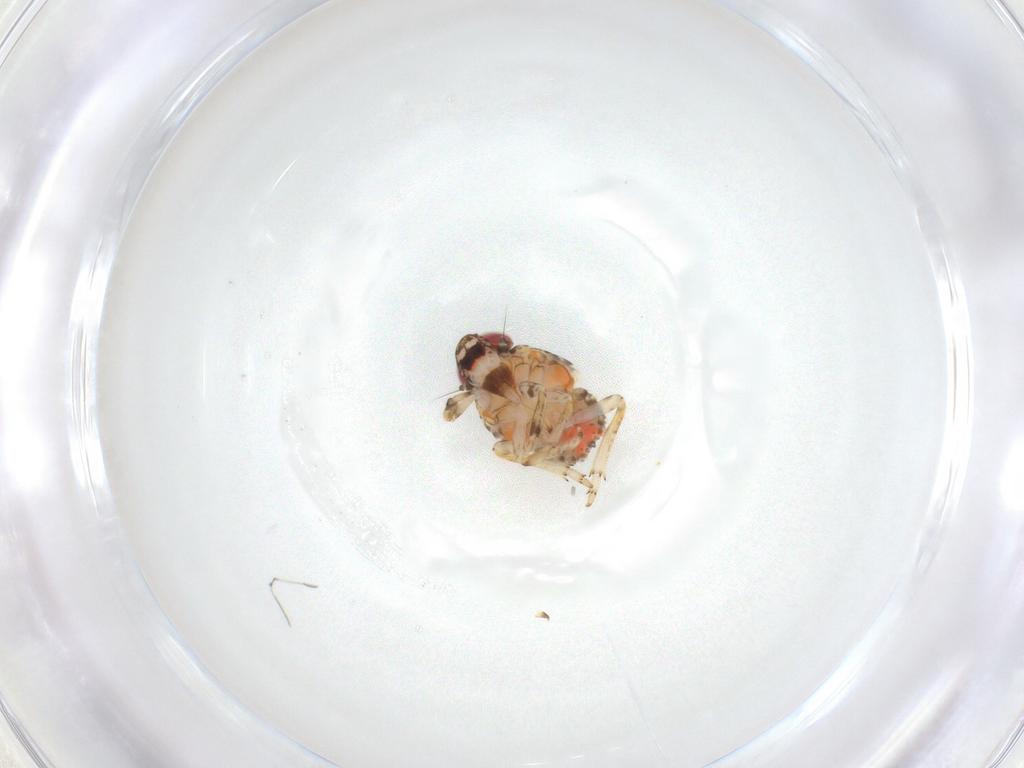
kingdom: Animalia
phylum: Arthropoda
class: Insecta
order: Hemiptera
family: Issidae
